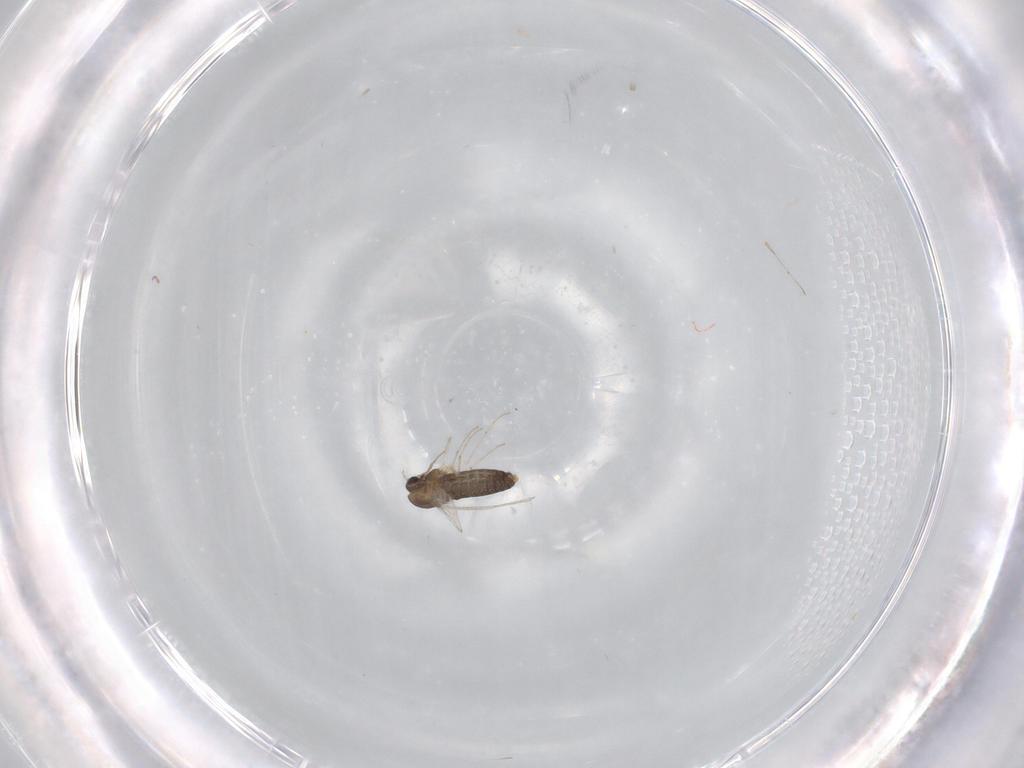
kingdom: Animalia
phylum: Arthropoda
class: Insecta
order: Diptera
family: Chironomidae
